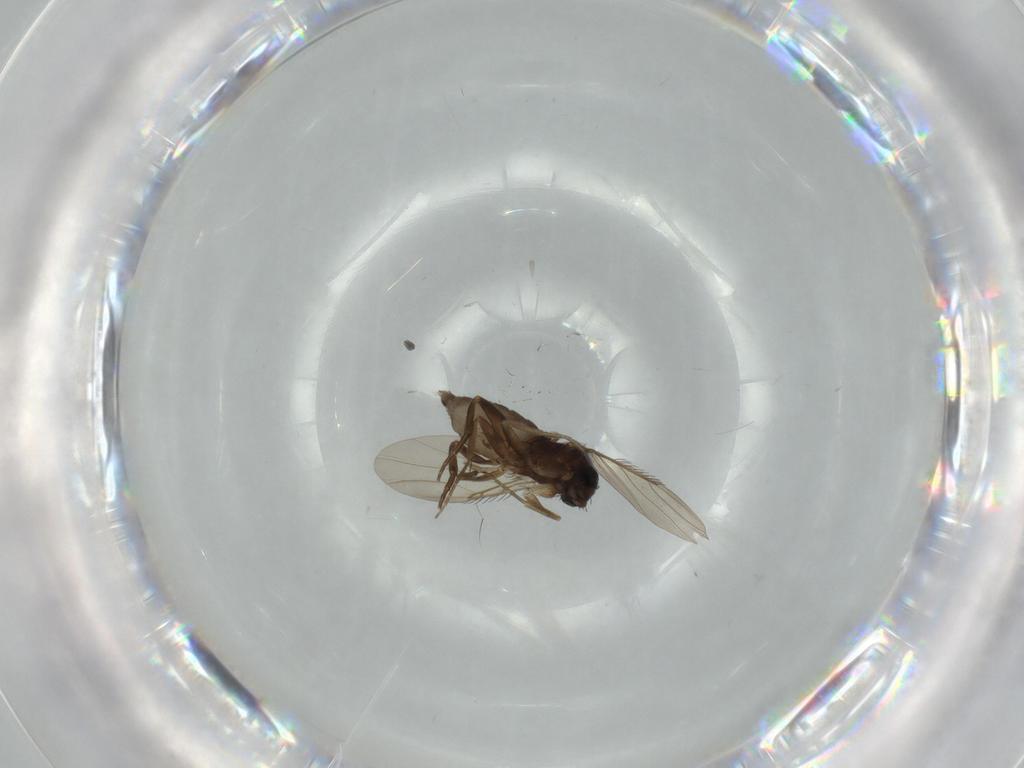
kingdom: Animalia
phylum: Arthropoda
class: Insecta
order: Diptera
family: Phoridae
